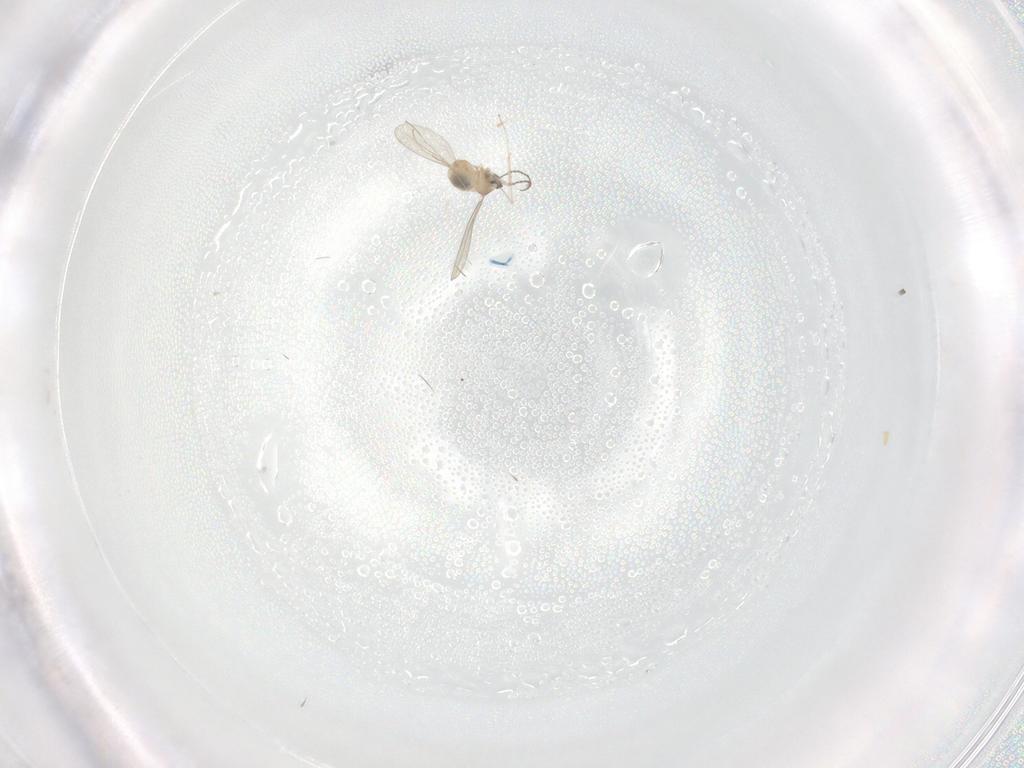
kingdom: Animalia
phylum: Arthropoda
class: Insecta
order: Diptera
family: Cecidomyiidae
